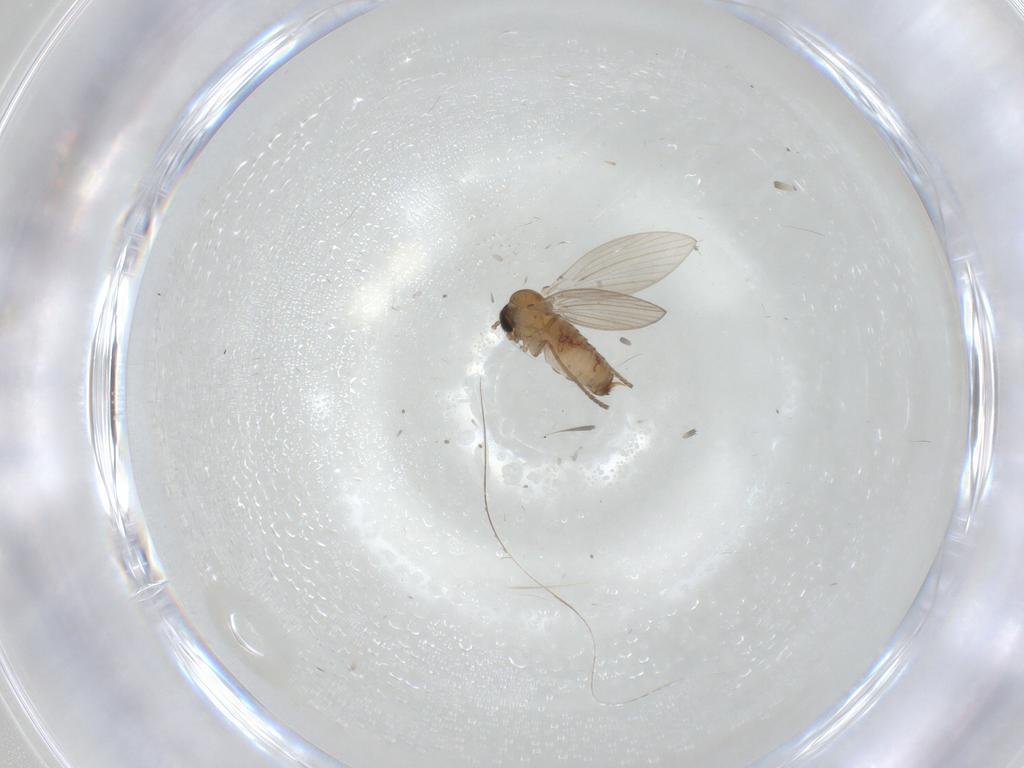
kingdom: Animalia
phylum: Arthropoda
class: Insecta
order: Diptera
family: Psychodidae
